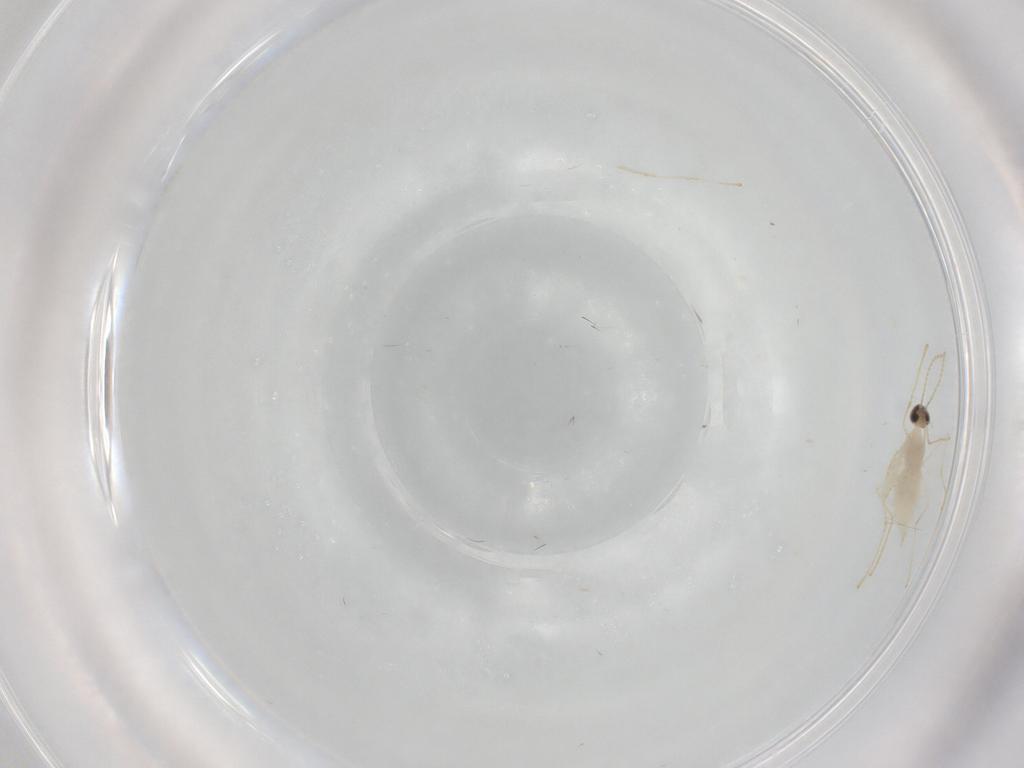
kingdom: Animalia
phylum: Arthropoda
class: Insecta
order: Diptera
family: Cecidomyiidae
